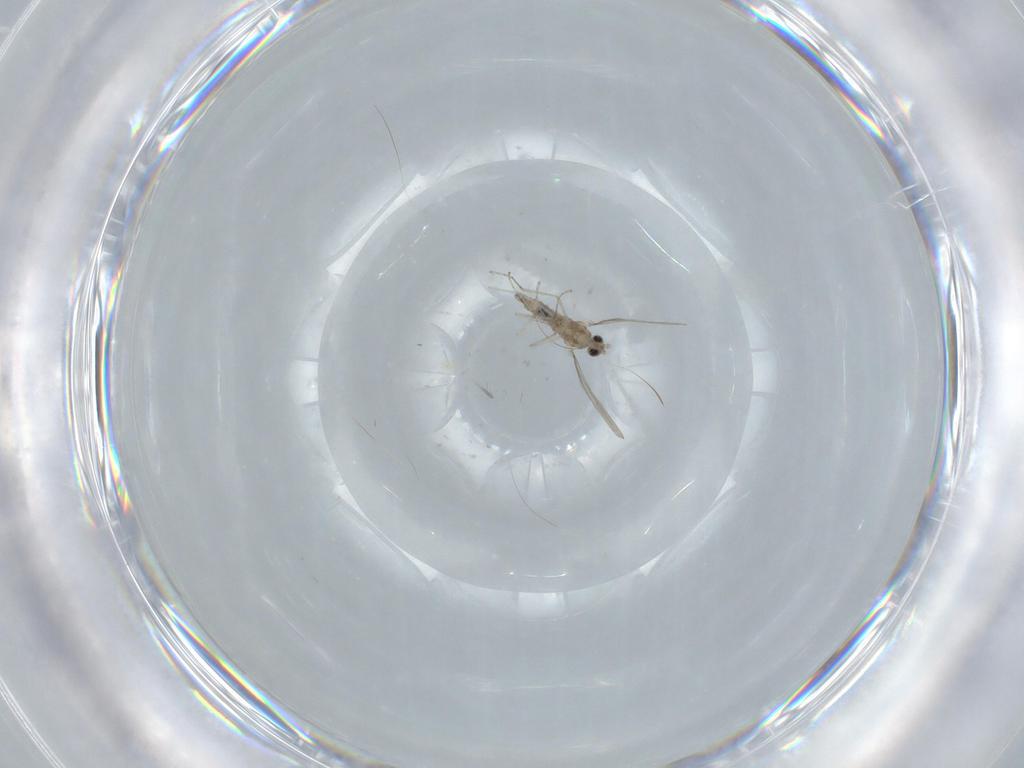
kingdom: Animalia
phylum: Arthropoda
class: Insecta
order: Diptera
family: Cecidomyiidae
